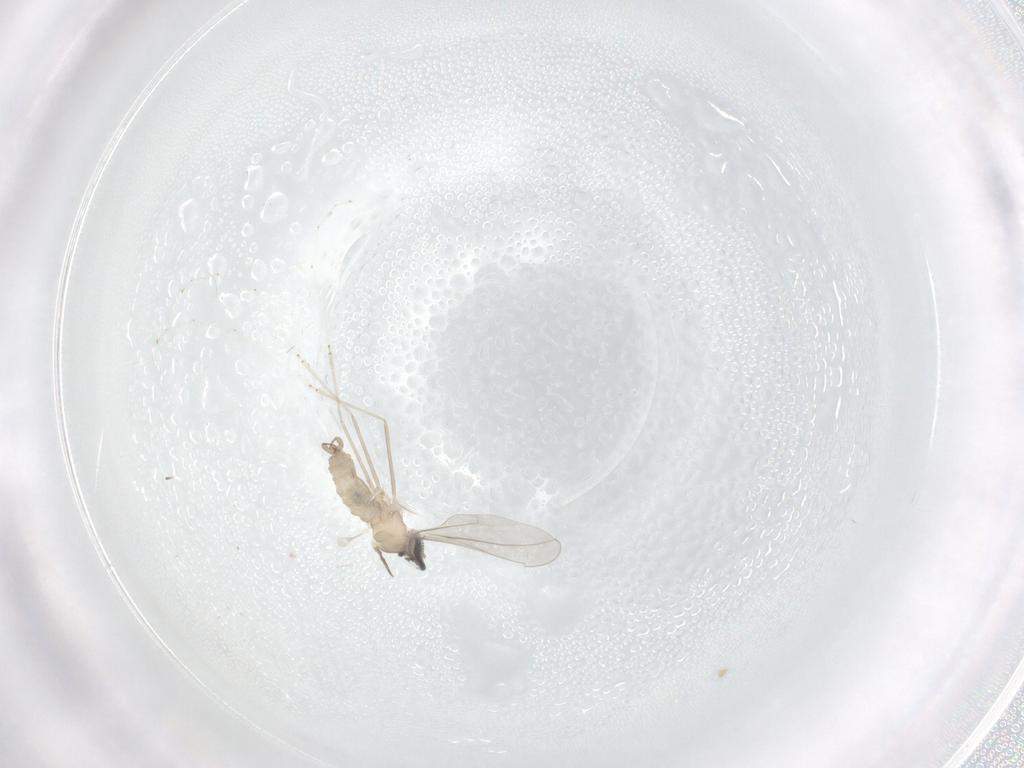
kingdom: Animalia
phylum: Arthropoda
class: Insecta
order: Diptera
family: Cecidomyiidae
